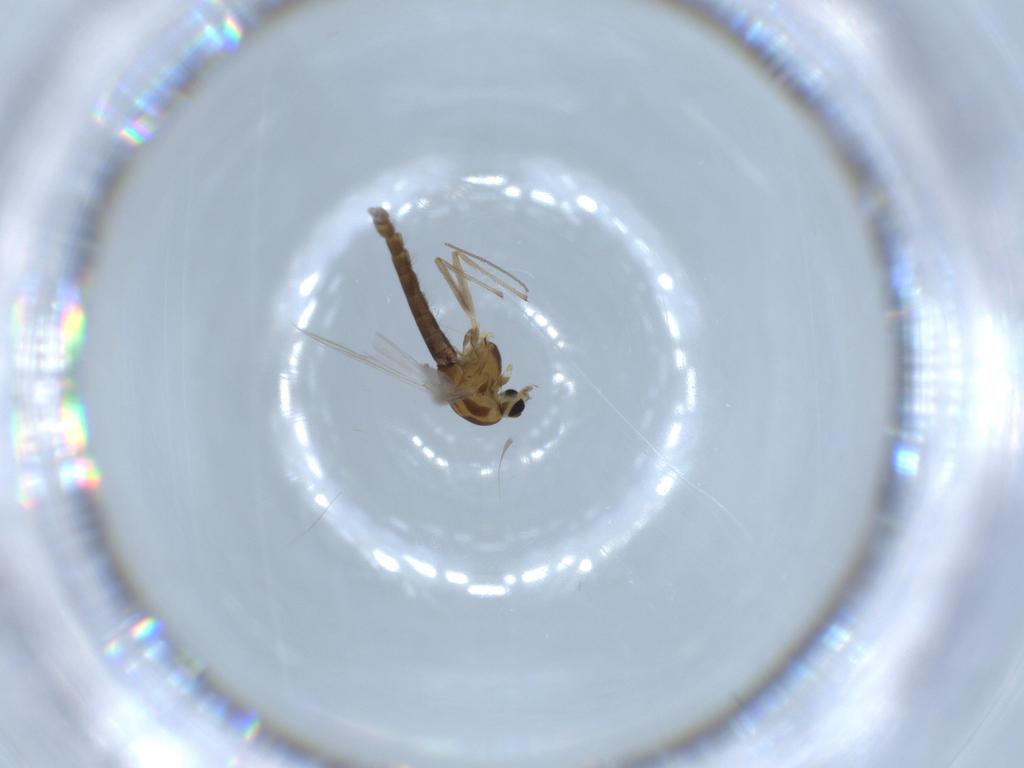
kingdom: Animalia
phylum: Arthropoda
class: Insecta
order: Diptera
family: Chironomidae
